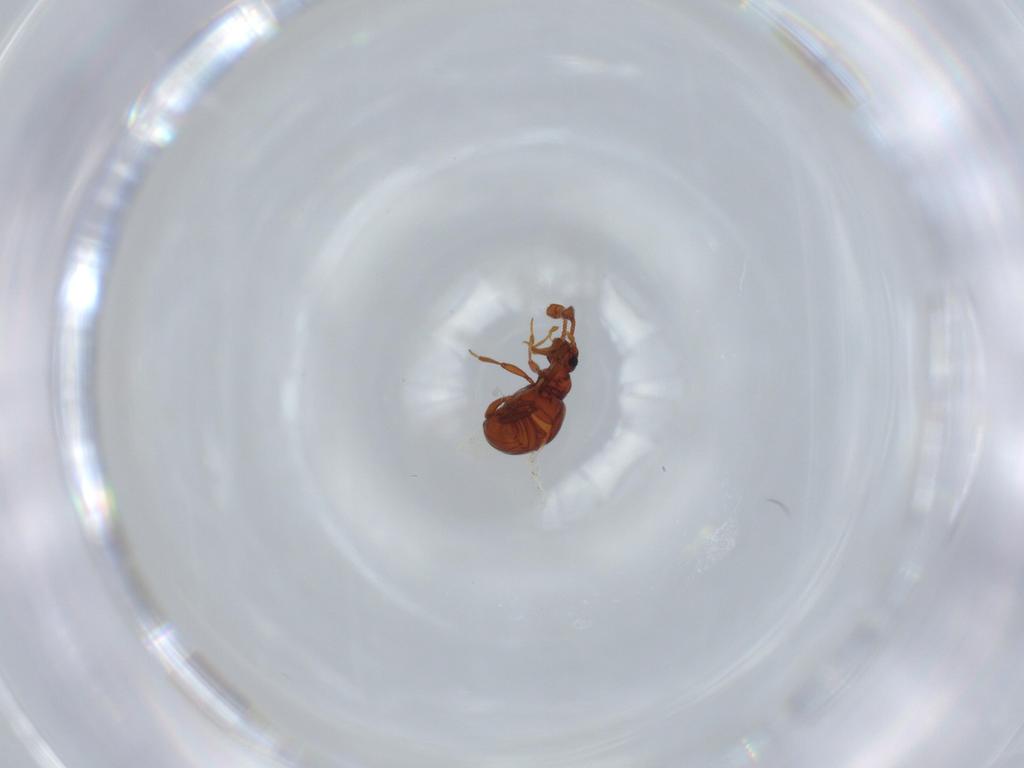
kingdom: Animalia
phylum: Arthropoda
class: Insecta
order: Coleoptera
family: Staphylinidae
